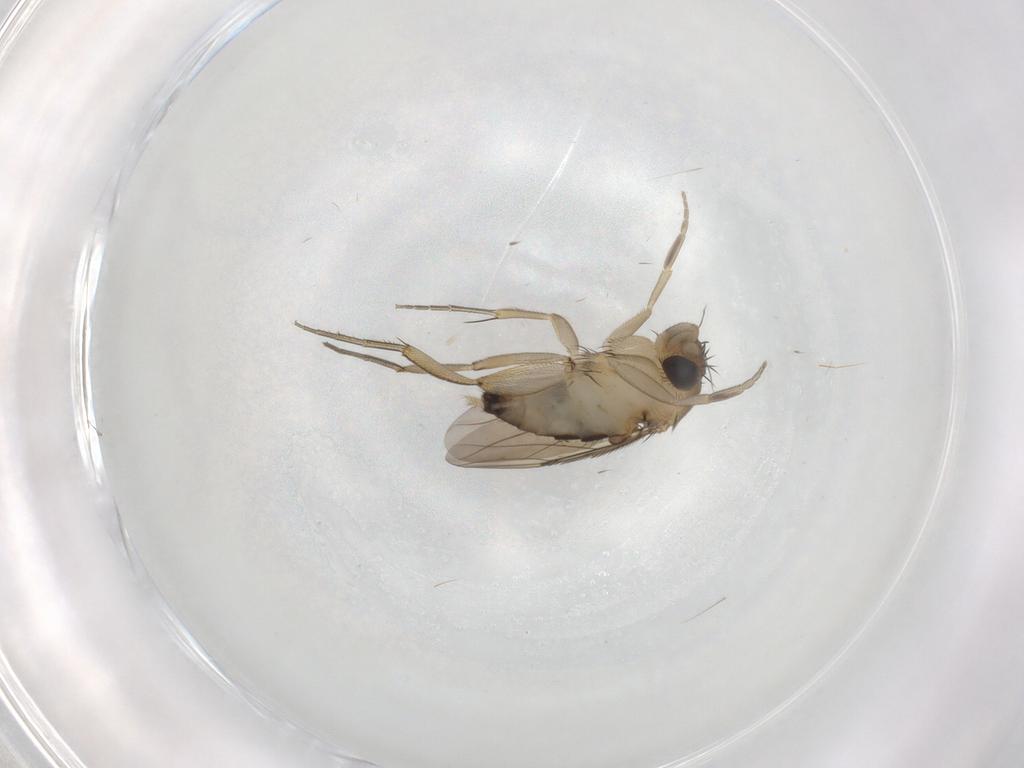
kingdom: Animalia
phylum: Arthropoda
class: Insecta
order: Diptera
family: Phoridae
